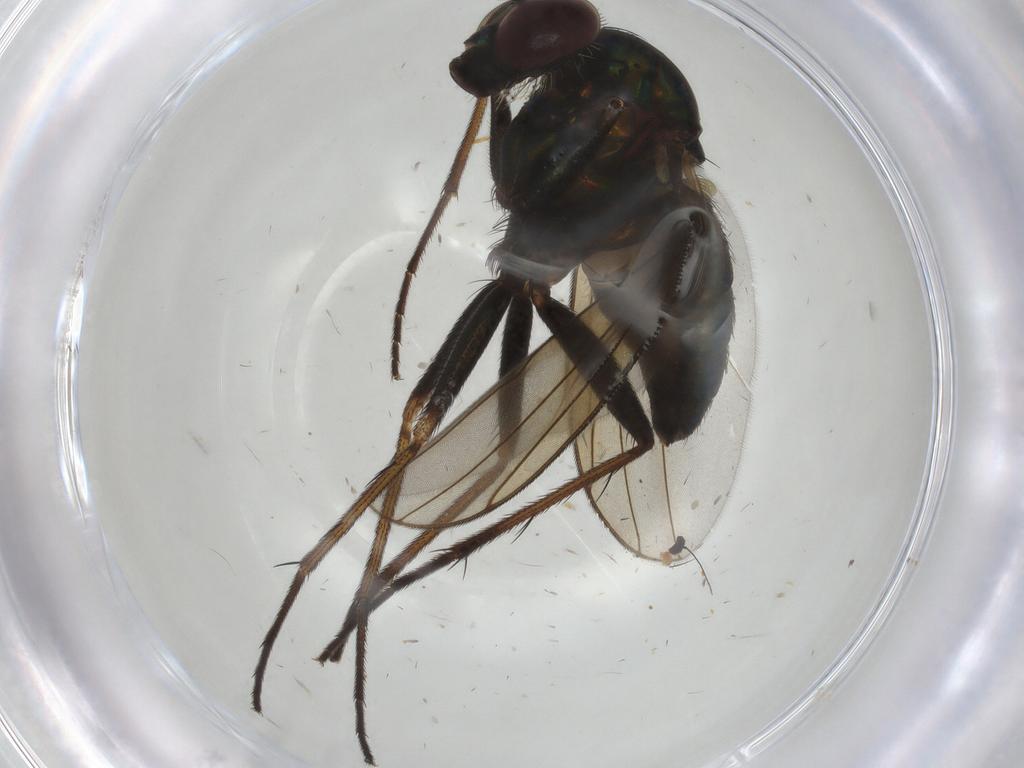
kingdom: Animalia
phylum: Arthropoda
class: Insecta
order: Diptera
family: Dolichopodidae
